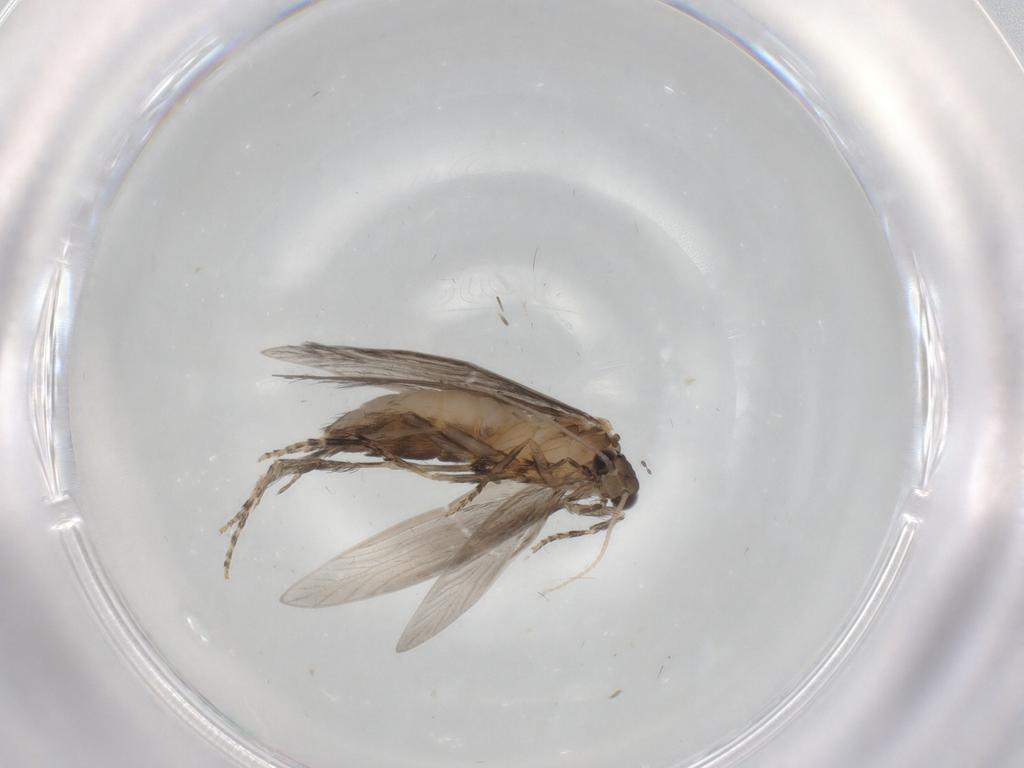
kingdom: Animalia
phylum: Arthropoda
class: Insecta
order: Trichoptera
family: Hydroptilidae
